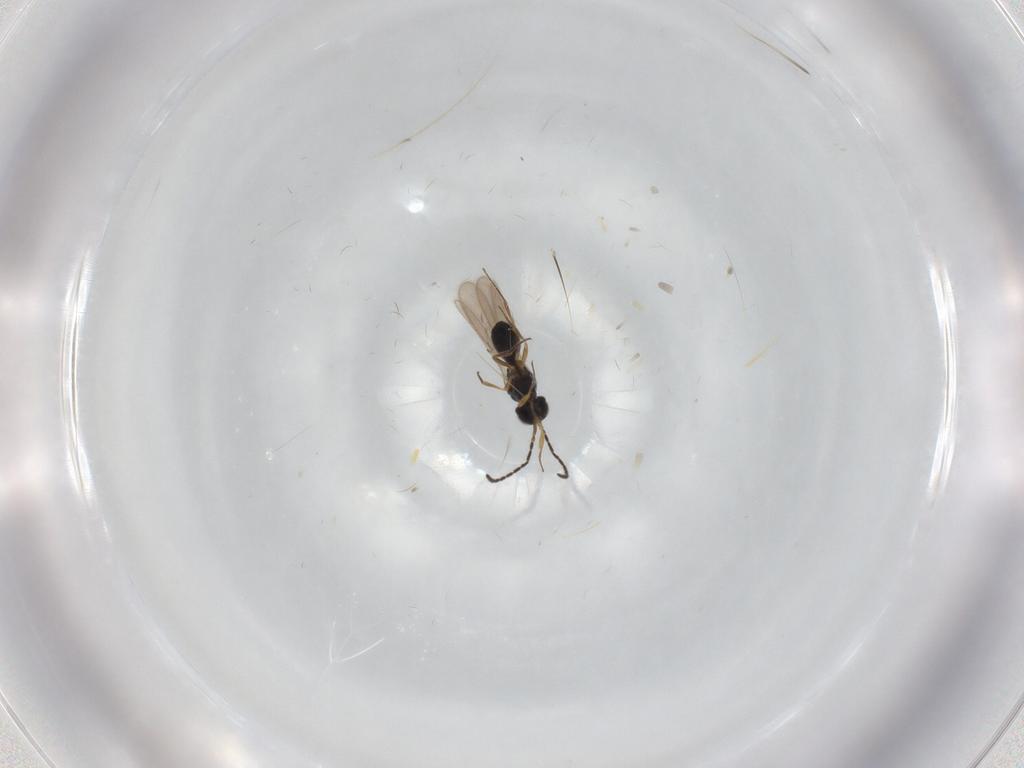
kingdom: Animalia
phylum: Arthropoda
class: Insecta
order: Hymenoptera
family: Scelionidae
